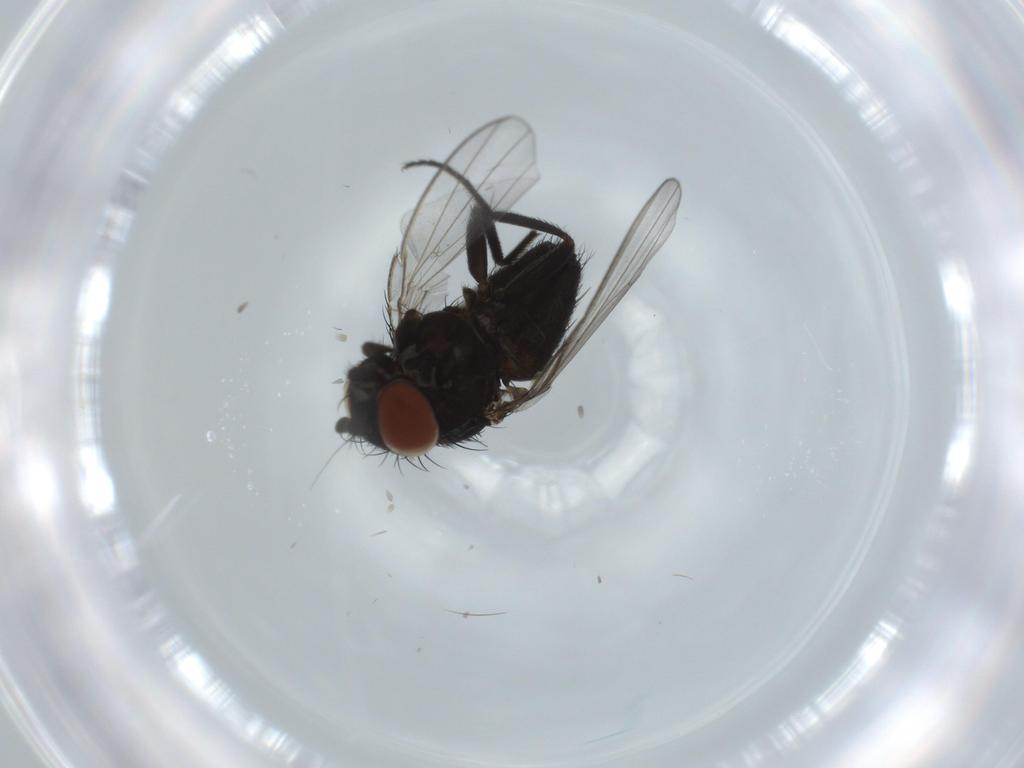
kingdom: Animalia
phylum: Arthropoda
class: Insecta
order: Diptera
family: Milichiidae
